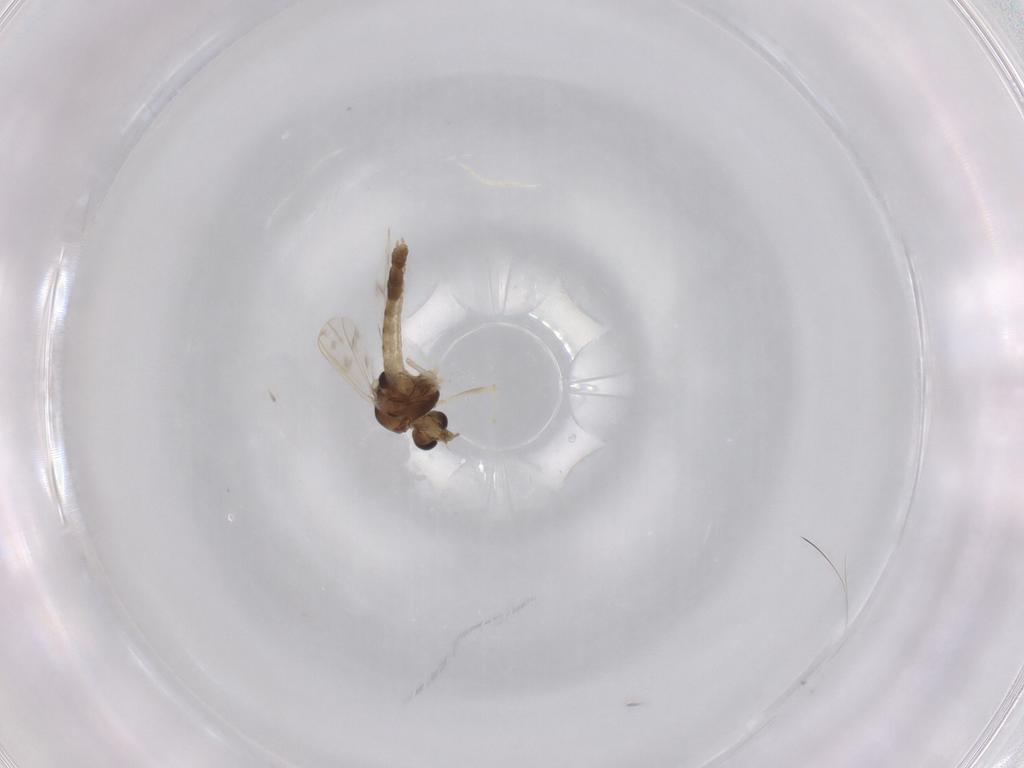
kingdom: Animalia
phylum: Arthropoda
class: Insecta
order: Diptera
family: Chironomidae
